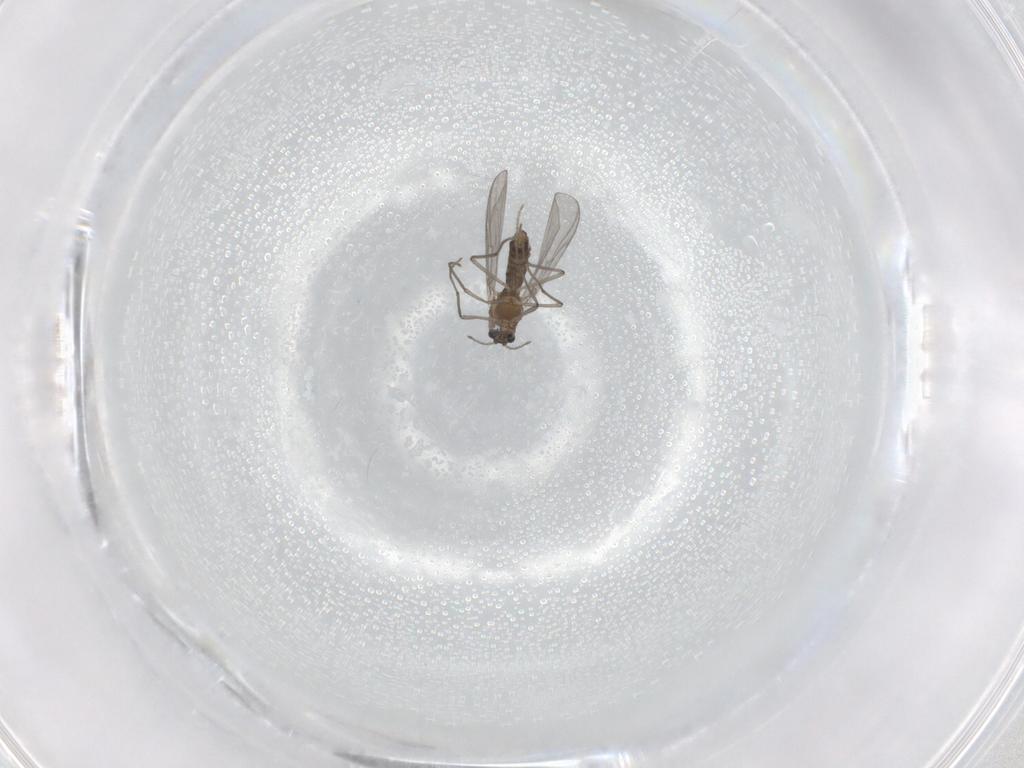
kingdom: Animalia
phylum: Arthropoda
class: Insecta
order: Diptera
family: Chironomidae
